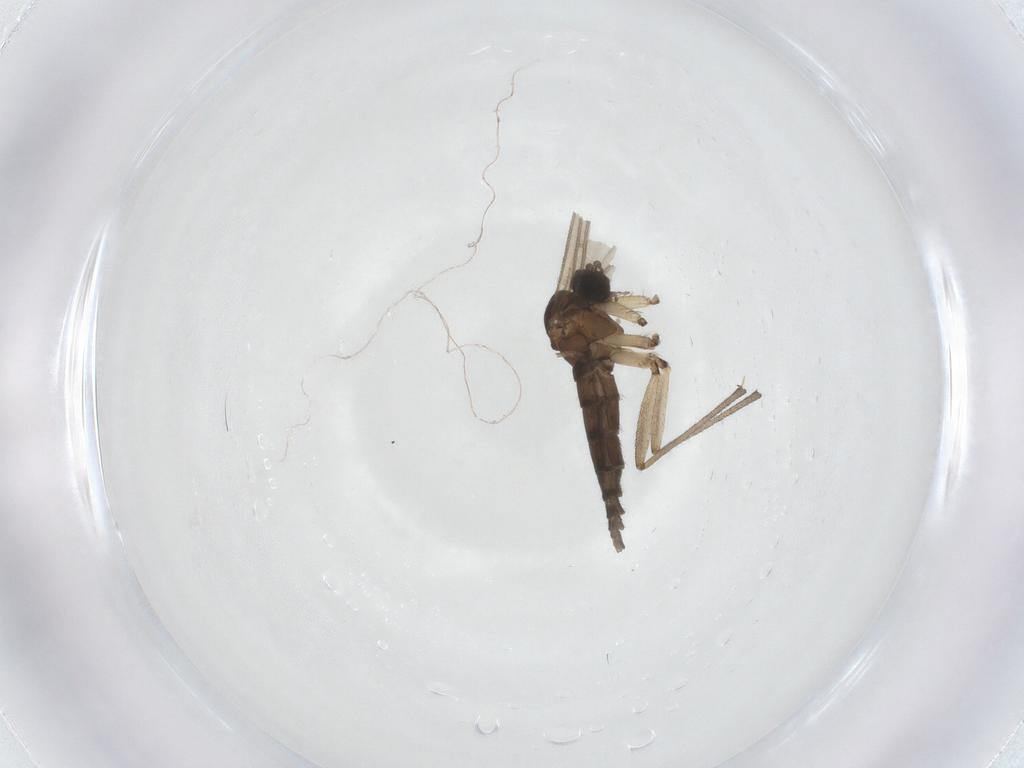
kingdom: Animalia
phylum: Arthropoda
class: Insecta
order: Diptera
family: Sciaridae
